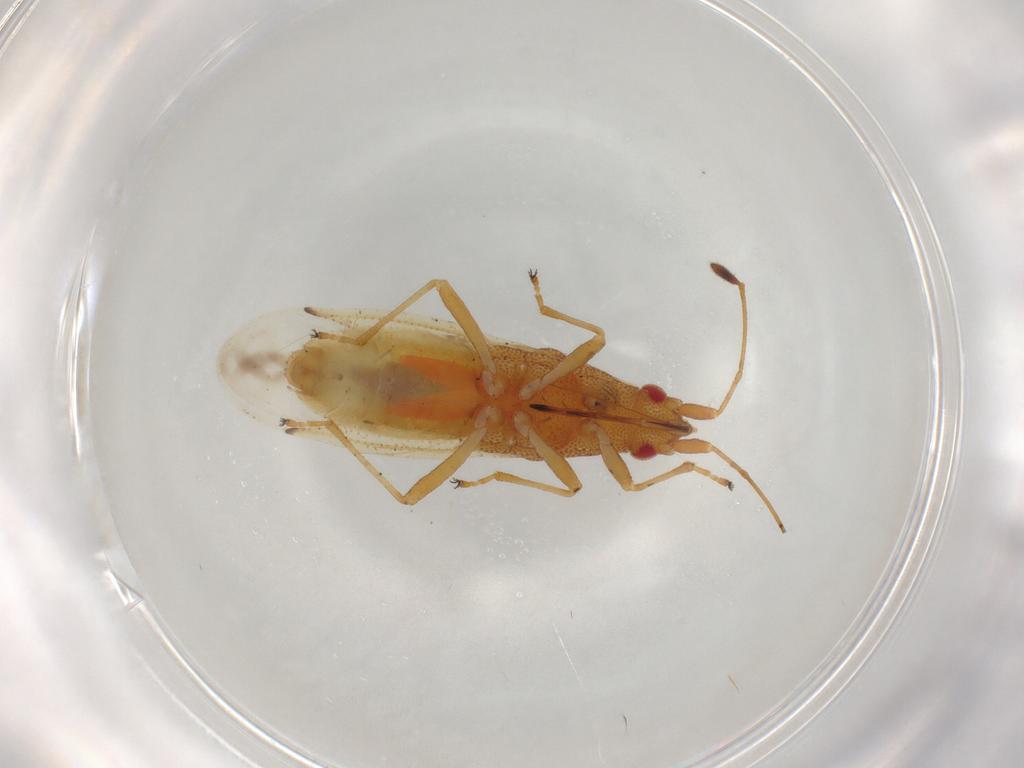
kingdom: Animalia
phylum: Arthropoda
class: Insecta
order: Hemiptera
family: Cymidae
